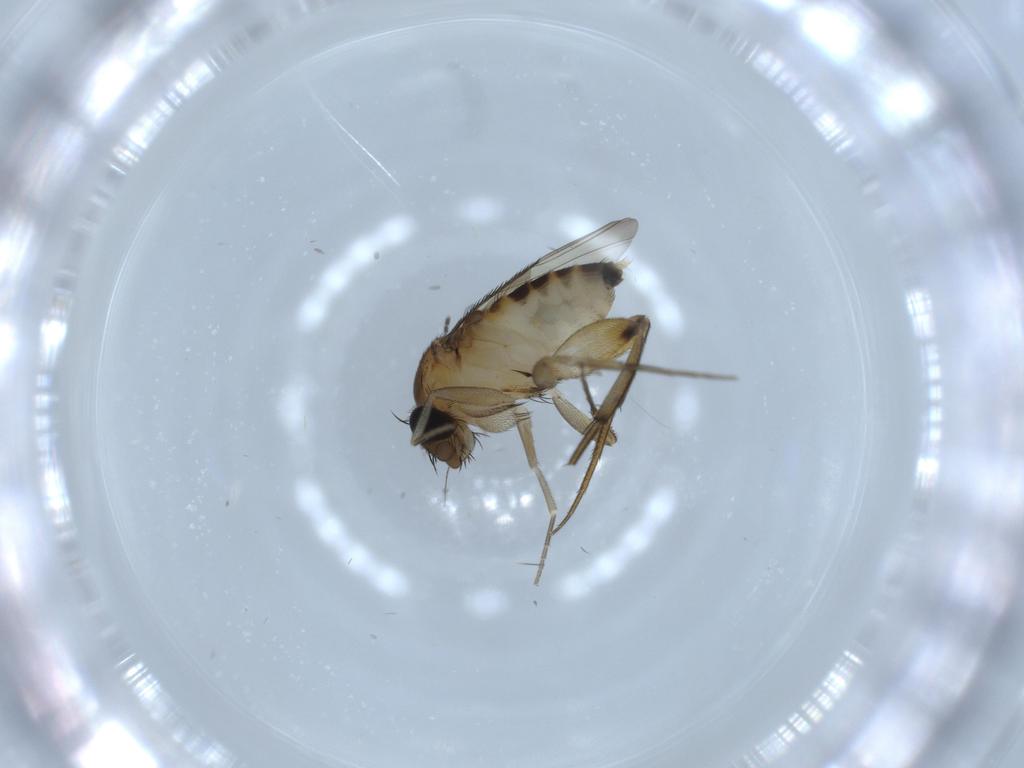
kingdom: Animalia
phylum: Arthropoda
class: Insecta
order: Diptera
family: Phoridae
